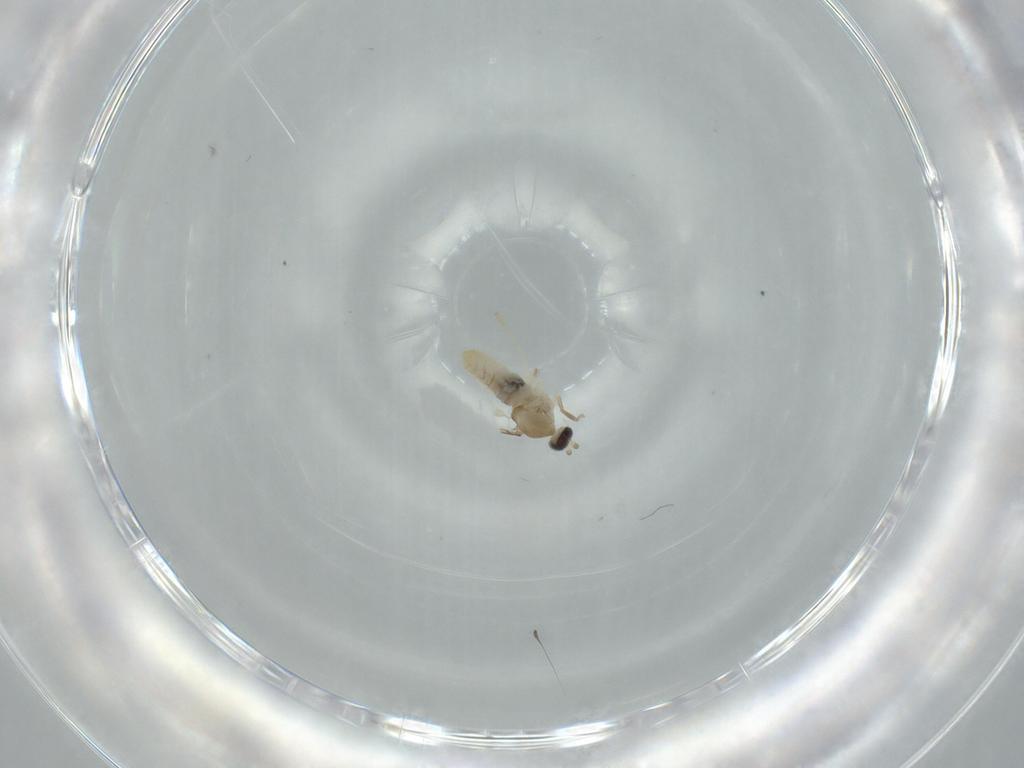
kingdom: Animalia
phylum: Arthropoda
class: Insecta
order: Diptera
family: Cecidomyiidae
